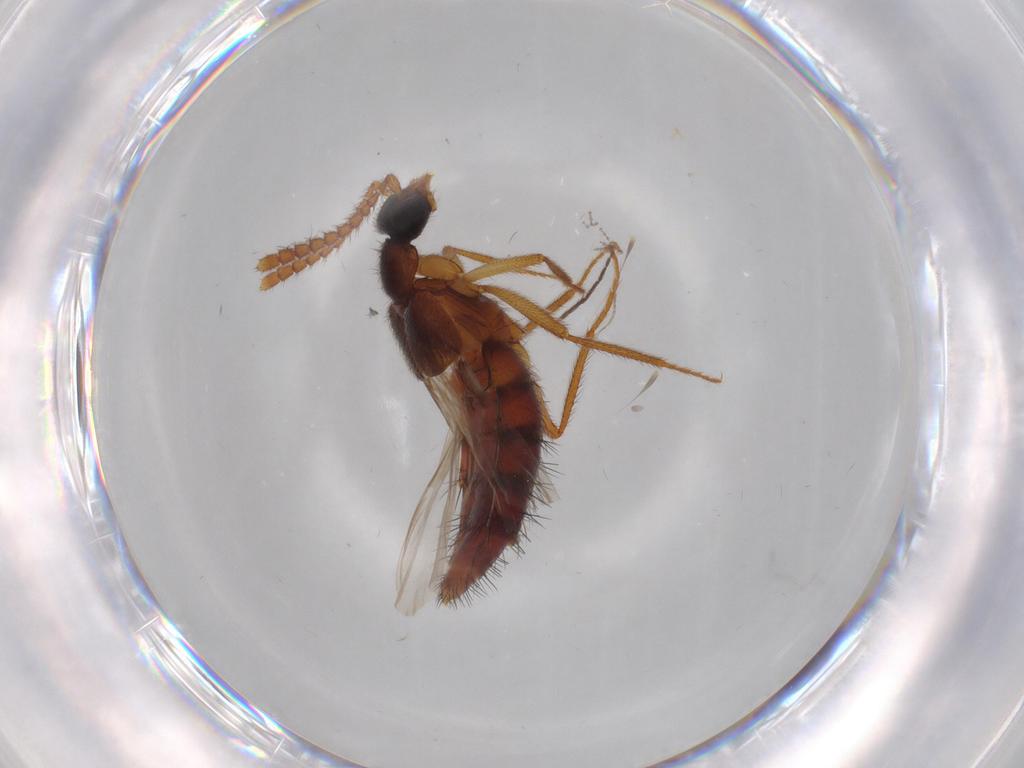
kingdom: Animalia
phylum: Arthropoda
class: Insecta
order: Coleoptera
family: Staphylinidae
